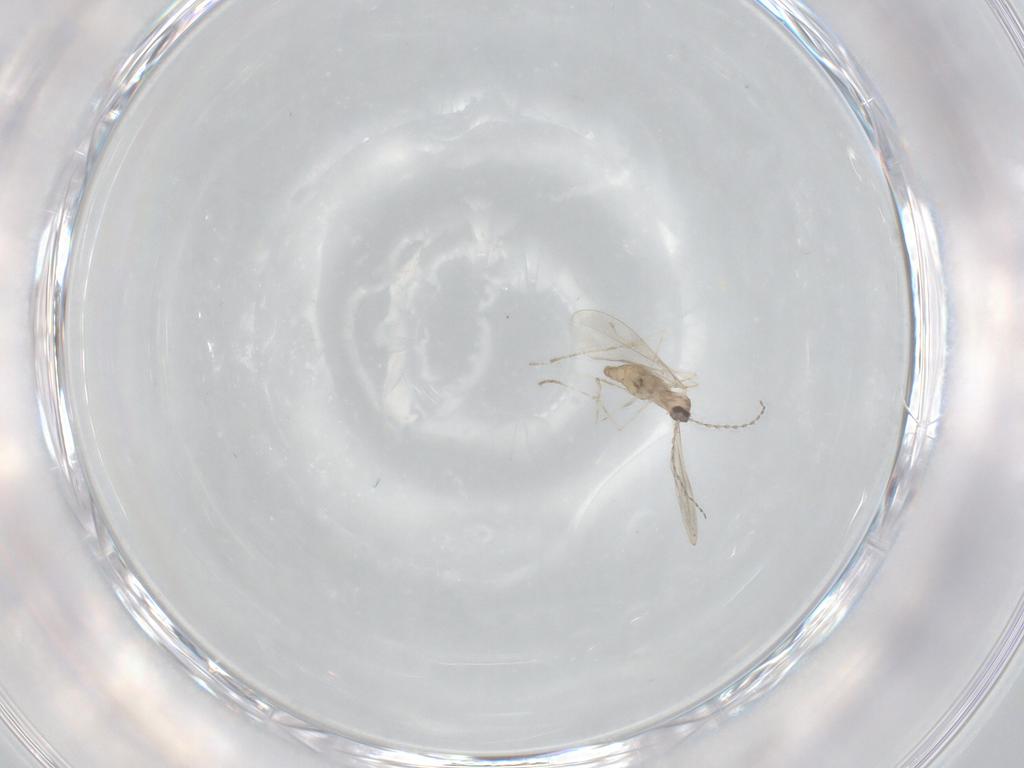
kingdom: Animalia
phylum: Arthropoda
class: Insecta
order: Diptera
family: Cecidomyiidae
